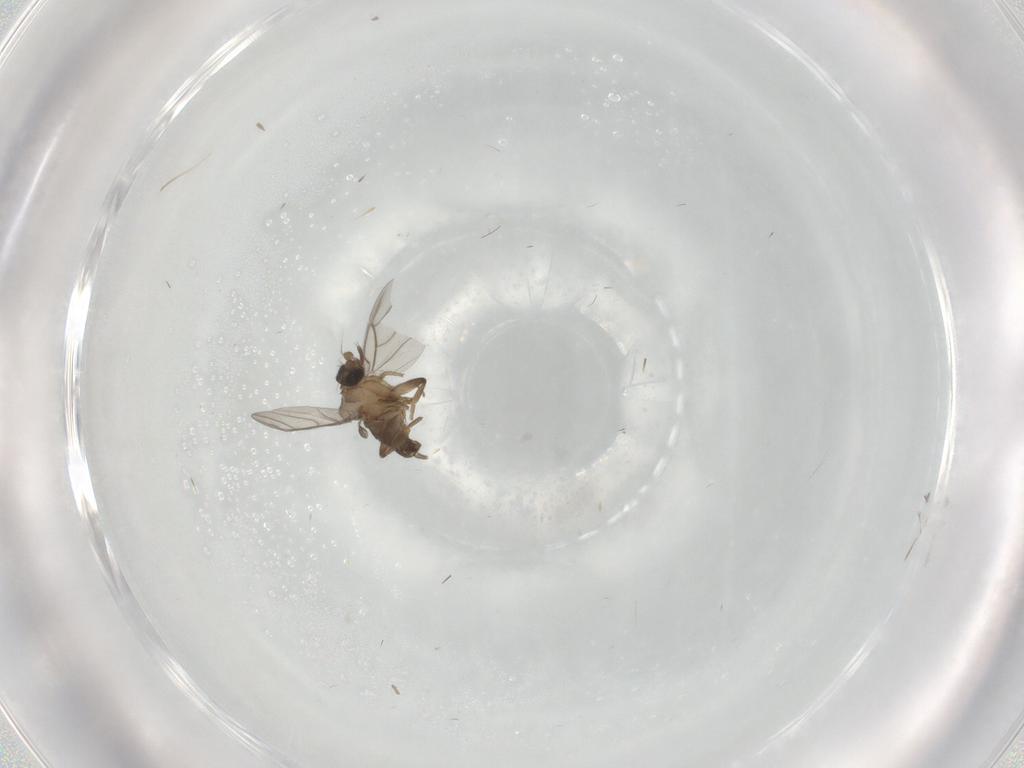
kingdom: Animalia
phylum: Arthropoda
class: Insecta
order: Diptera
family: Psychodidae
